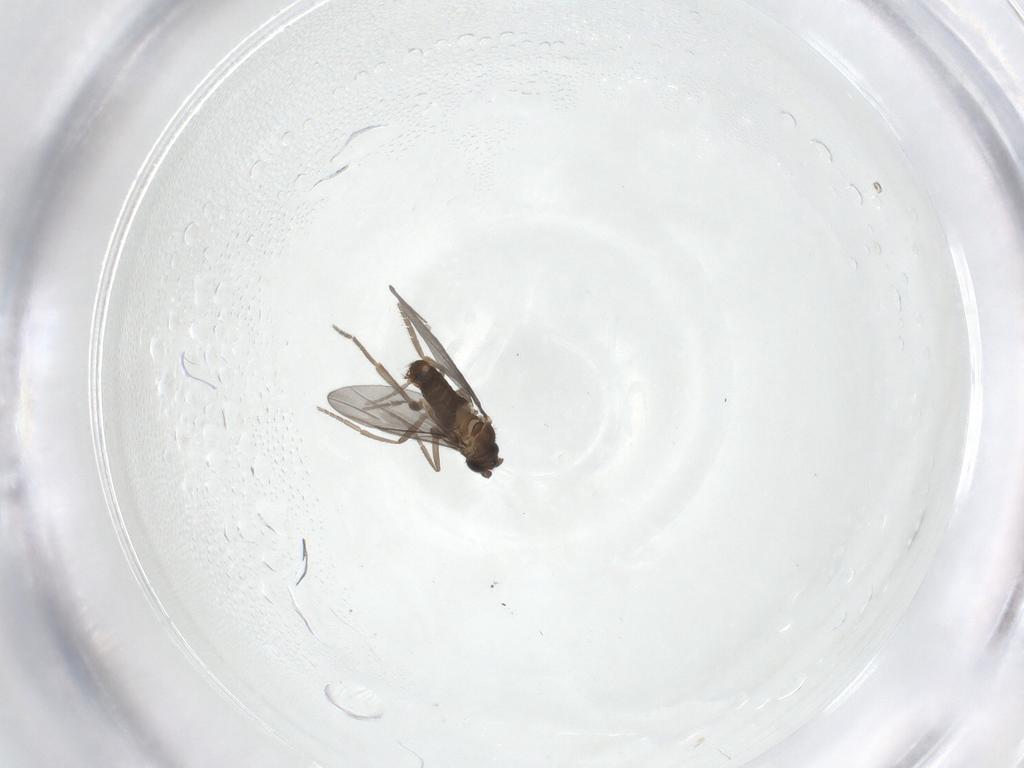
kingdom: Animalia
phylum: Arthropoda
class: Insecta
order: Diptera
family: Phoridae
